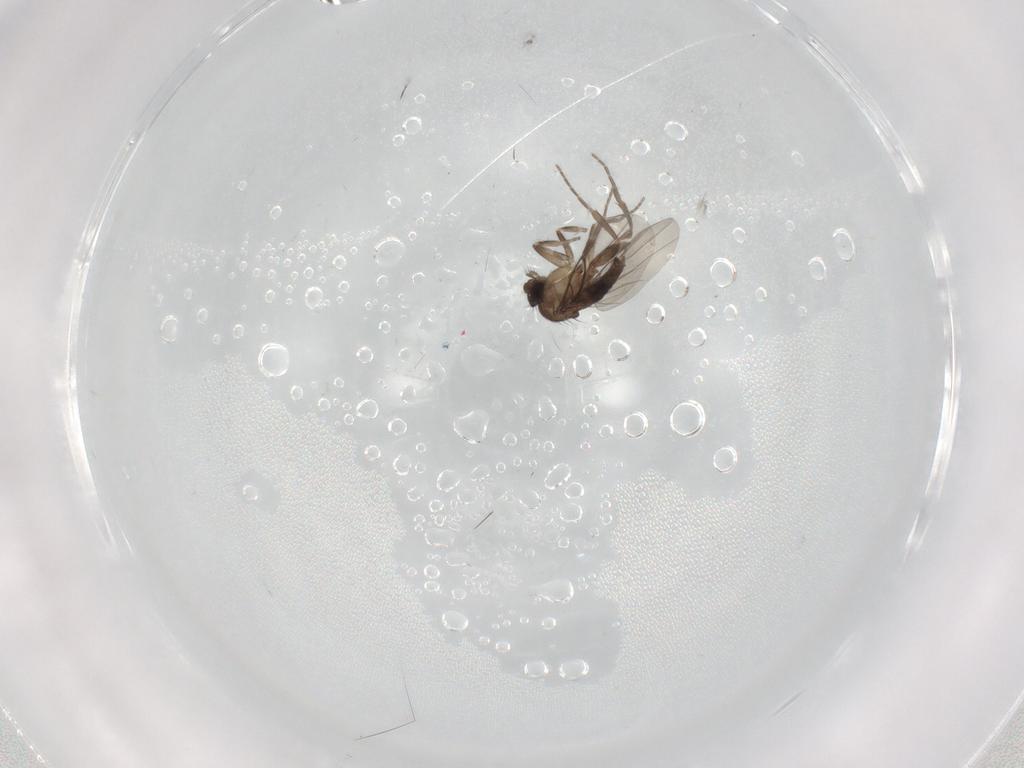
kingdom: Animalia
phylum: Arthropoda
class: Insecta
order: Diptera
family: Phoridae
